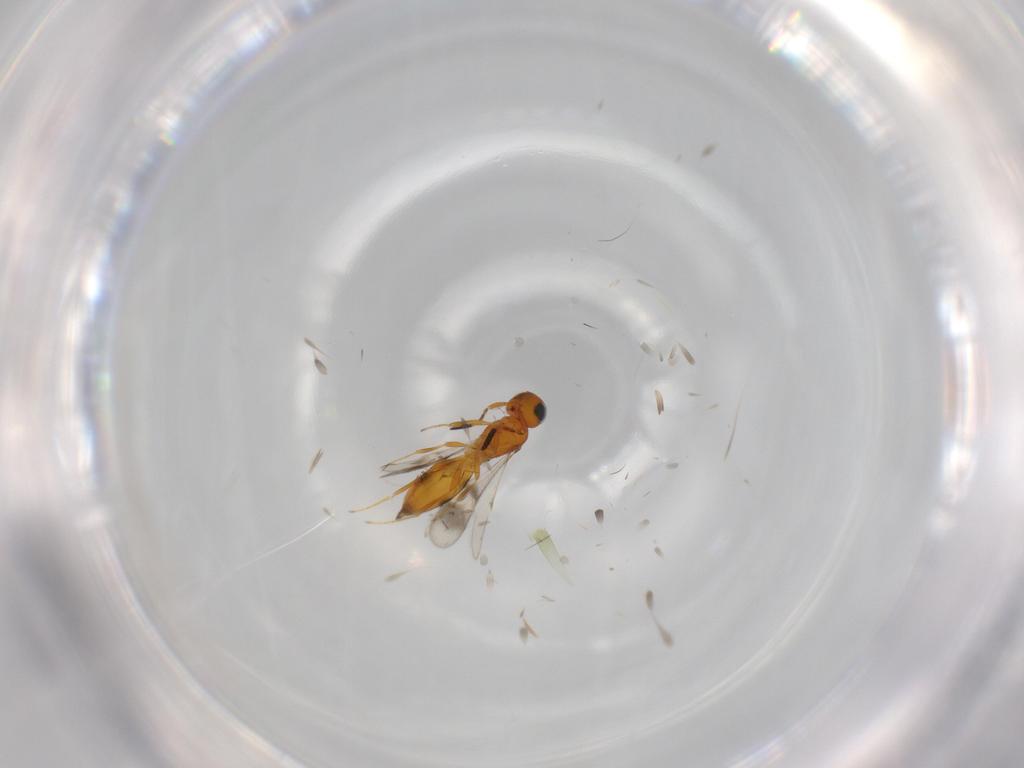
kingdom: Animalia
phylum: Arthropoda
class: Insecta
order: Hymenoptera
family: Scelionidae
